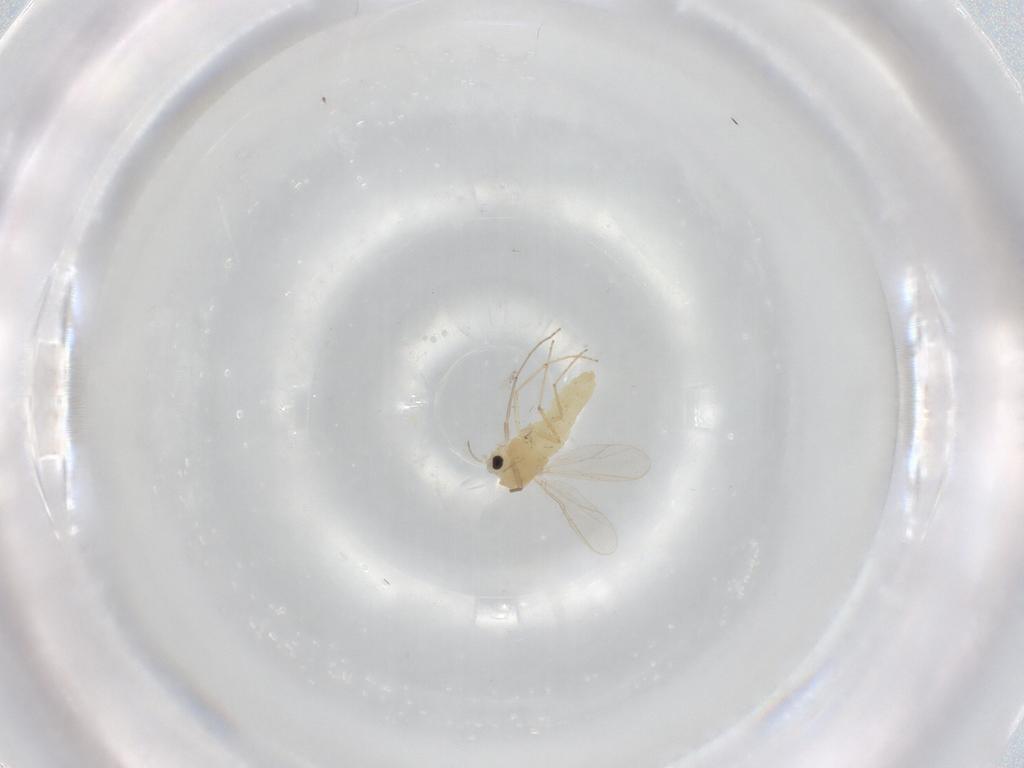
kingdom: Animalia
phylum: Arthropoda
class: Insecta
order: Diptera
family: Chironomidae
